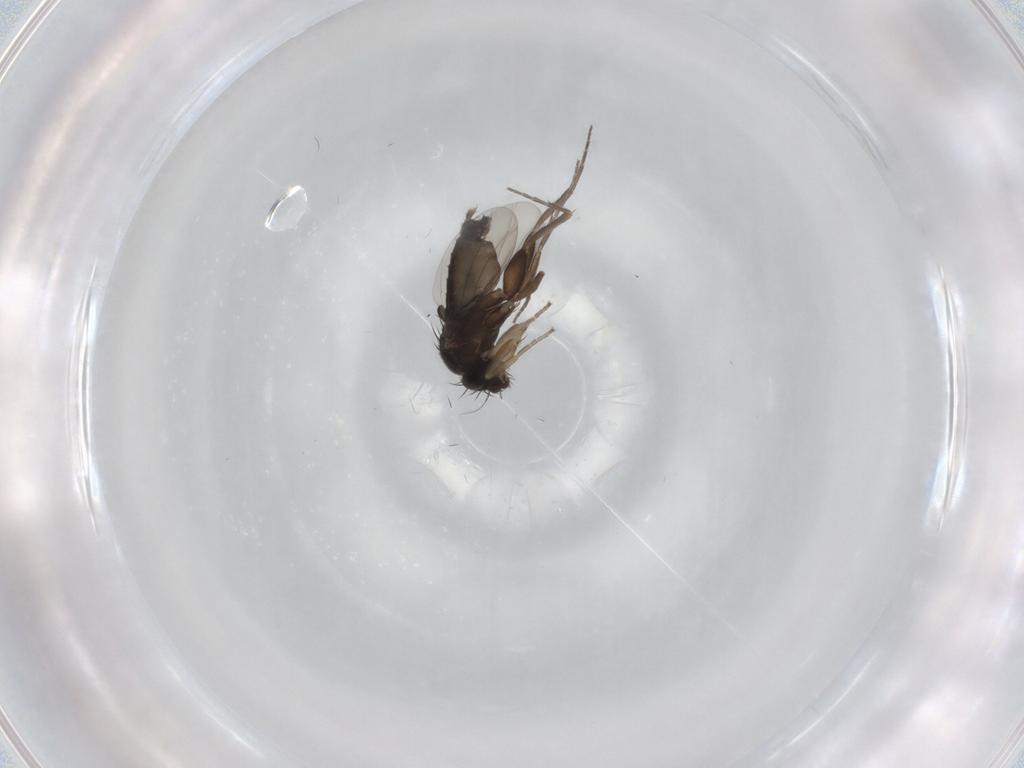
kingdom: Animalia
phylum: Arthropoda
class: Insecta
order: Diptera
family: Phoridae
